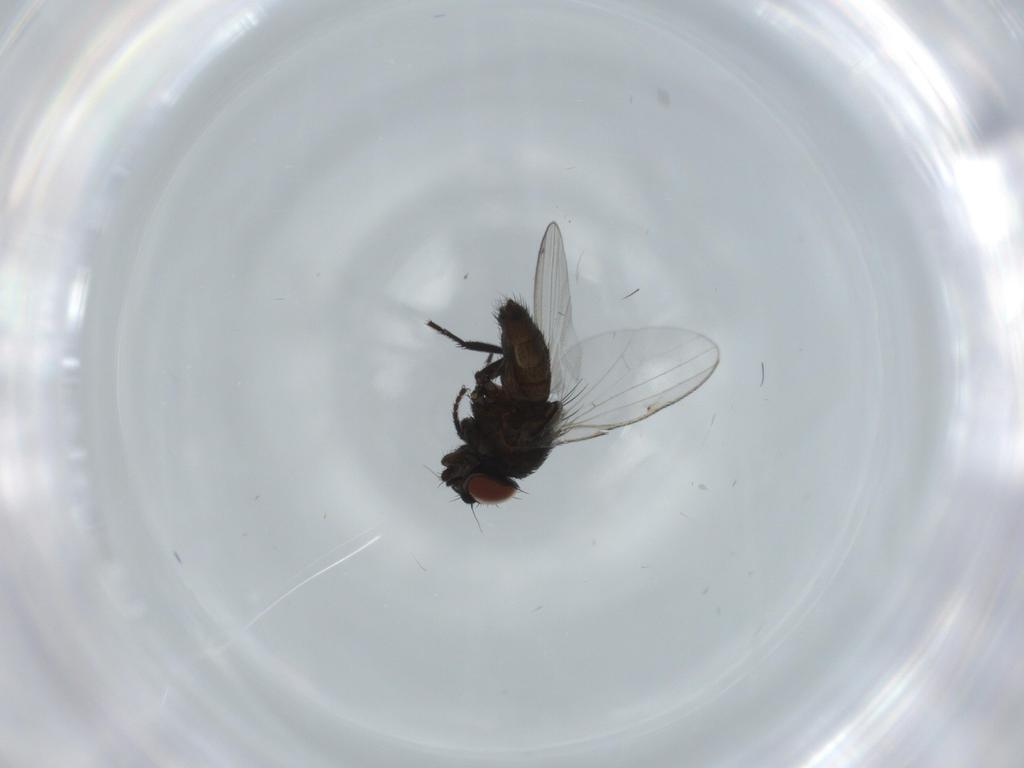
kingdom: Animalia
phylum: Arthropoda
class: Insecta
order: Diptera
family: Milichiidae
